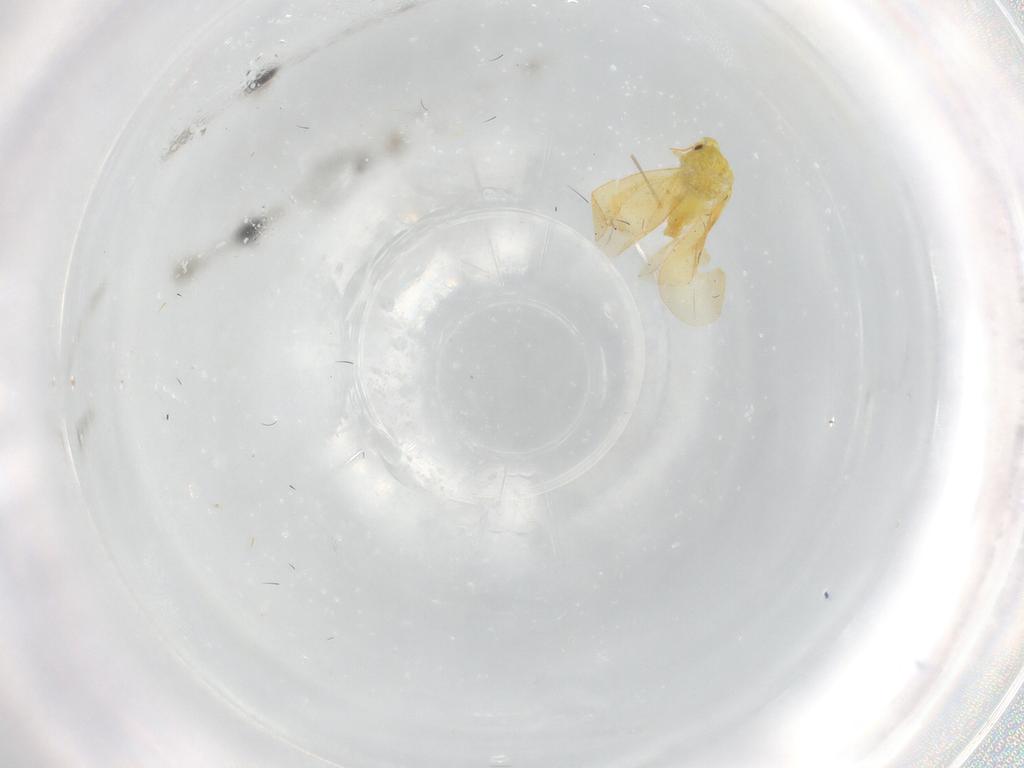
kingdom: Animalia
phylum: Arthropoda
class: Insecta
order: Hemiptera
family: Aleyrodidae
